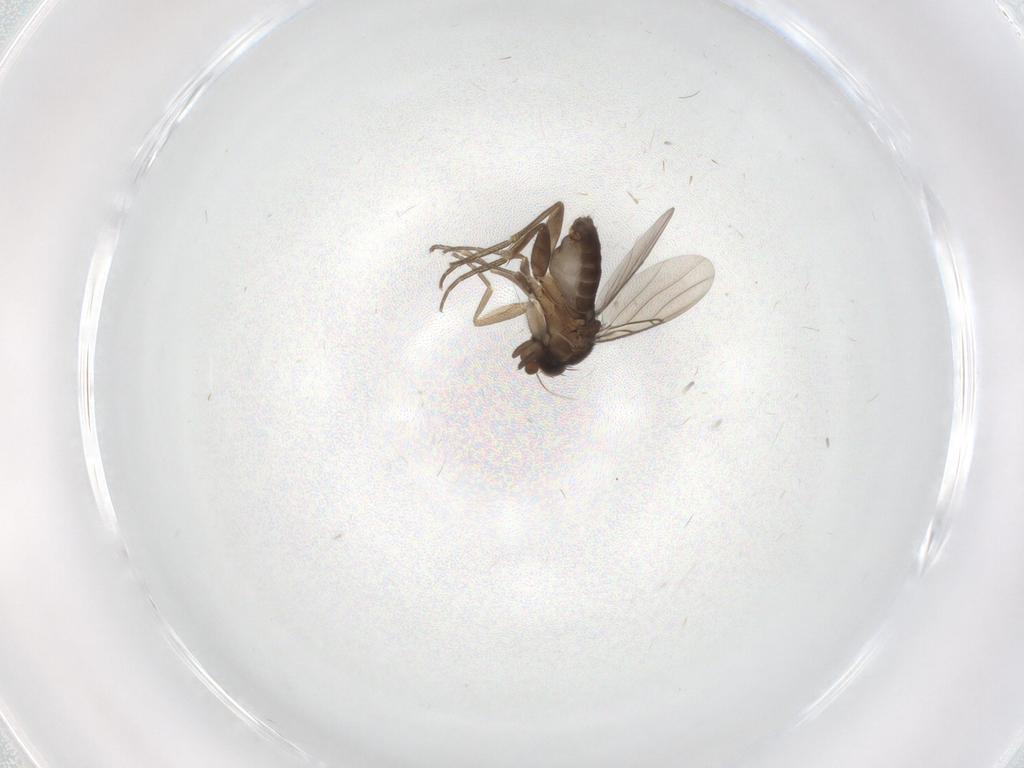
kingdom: Animalia
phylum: Arthropoda
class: Insecta
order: Diptera
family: Phoridae
